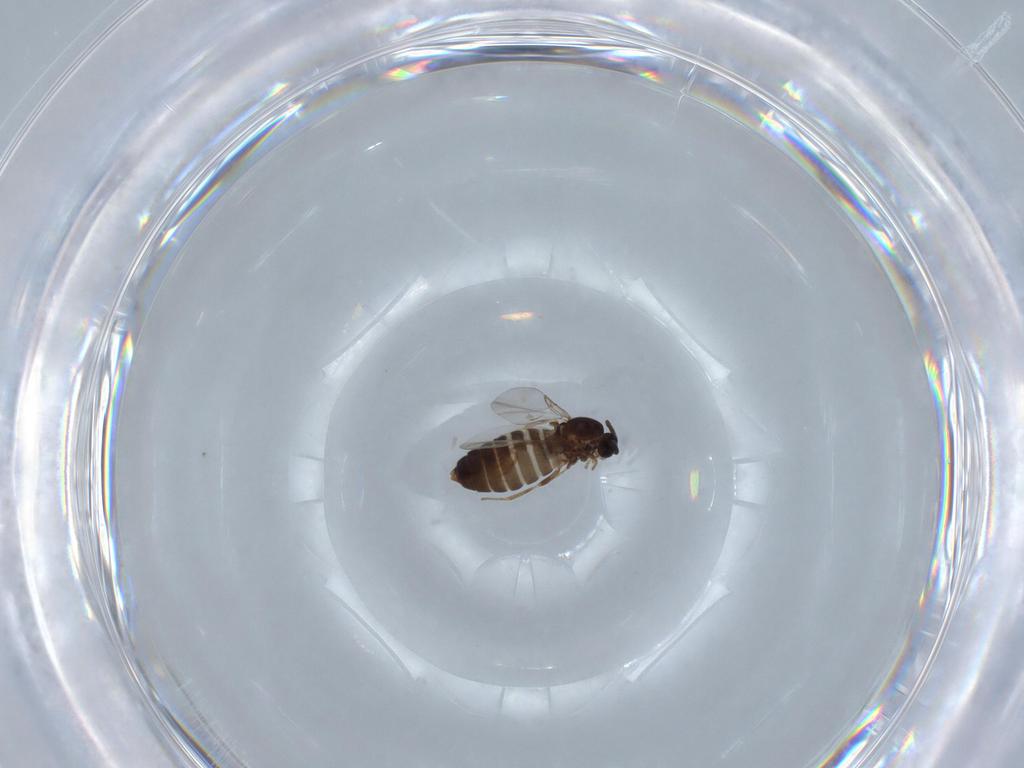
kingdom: Animalia
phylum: Arthropoda
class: Insecta
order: Diptera
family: Scatopsidae
